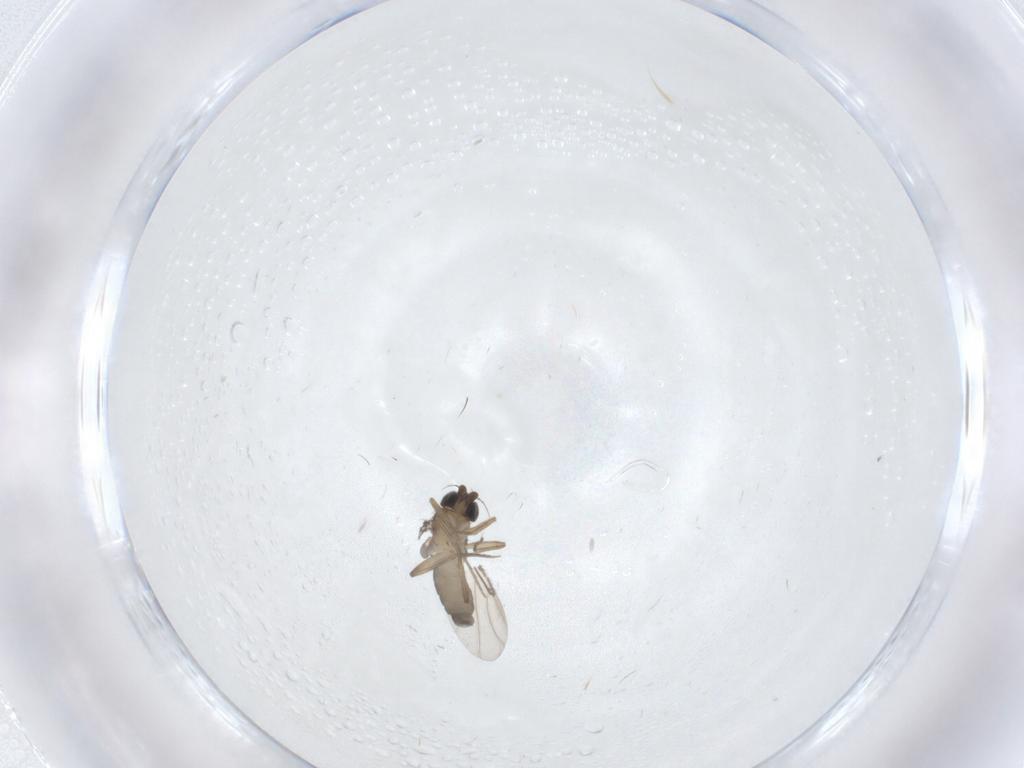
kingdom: Animalia
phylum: Arthropoda
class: Insecta
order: Diptera
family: Phoridae
